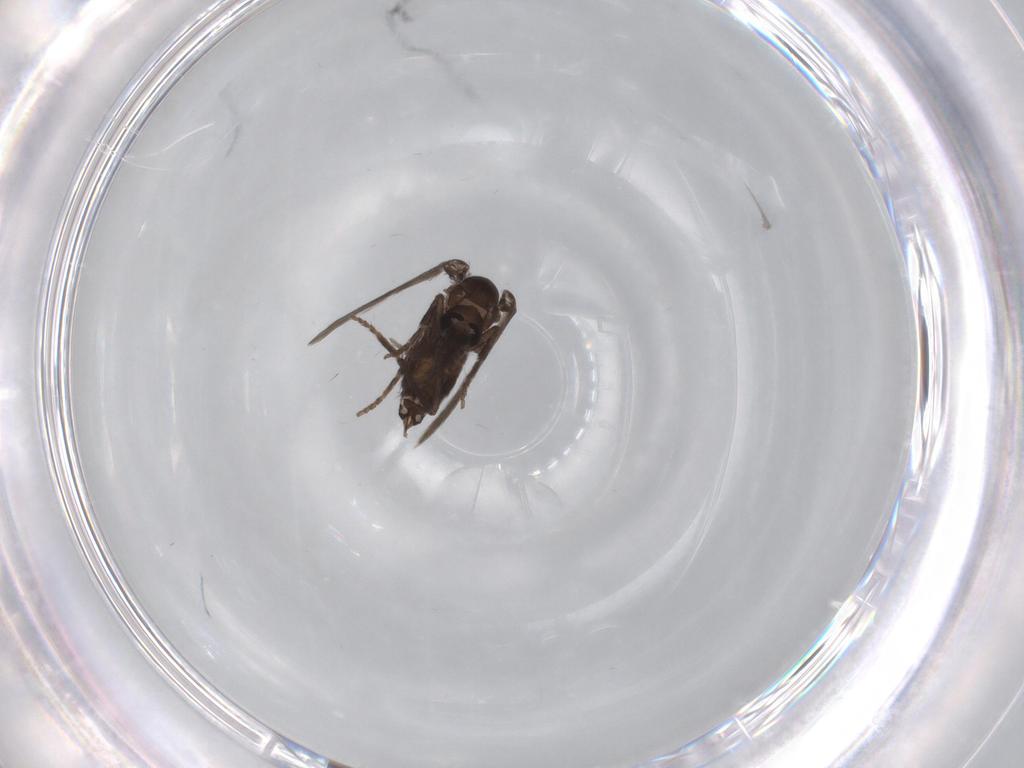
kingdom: Animalia
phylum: Arthropoda
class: Insecta
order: Diptera
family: Psychodidae
